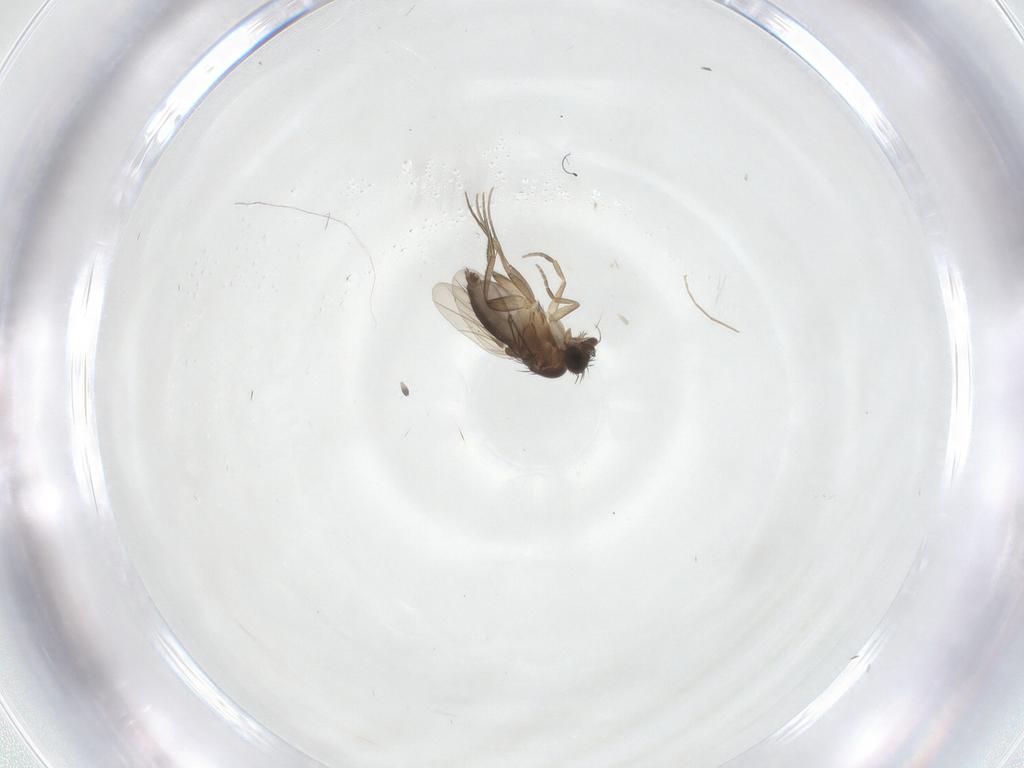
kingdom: Animalia
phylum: Arthropoda
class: Insecta
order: Diptera
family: Phoridae
